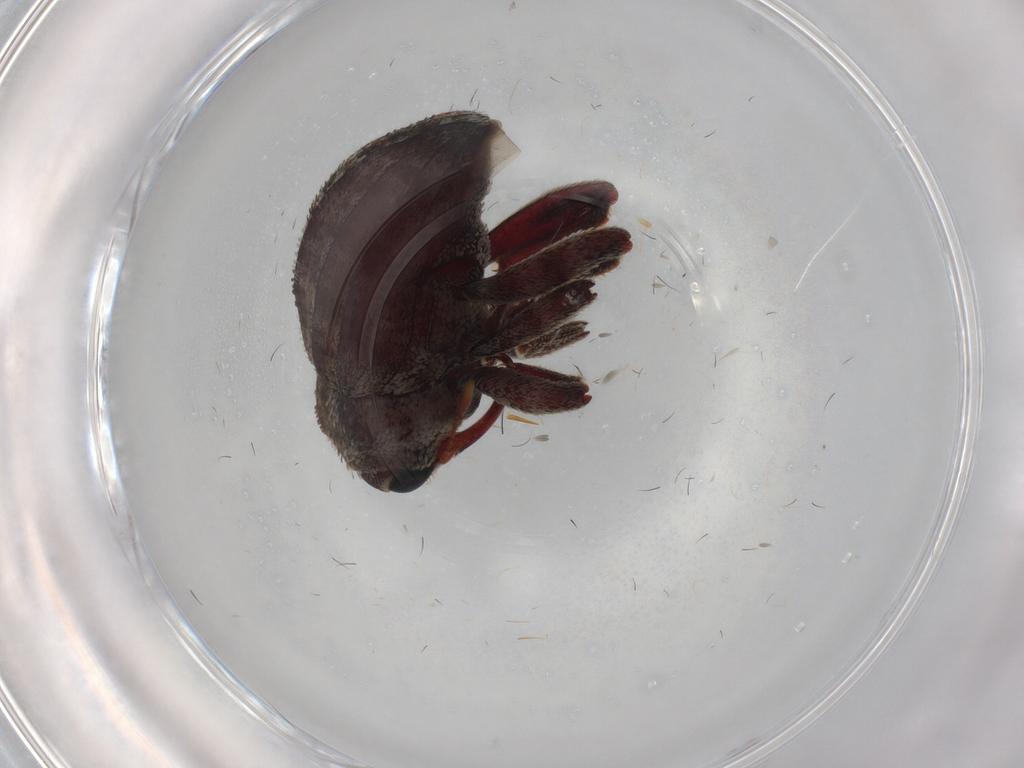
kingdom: Animalia
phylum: Arthropoda
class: Insecta
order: Coleoptera
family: Curculionidae
